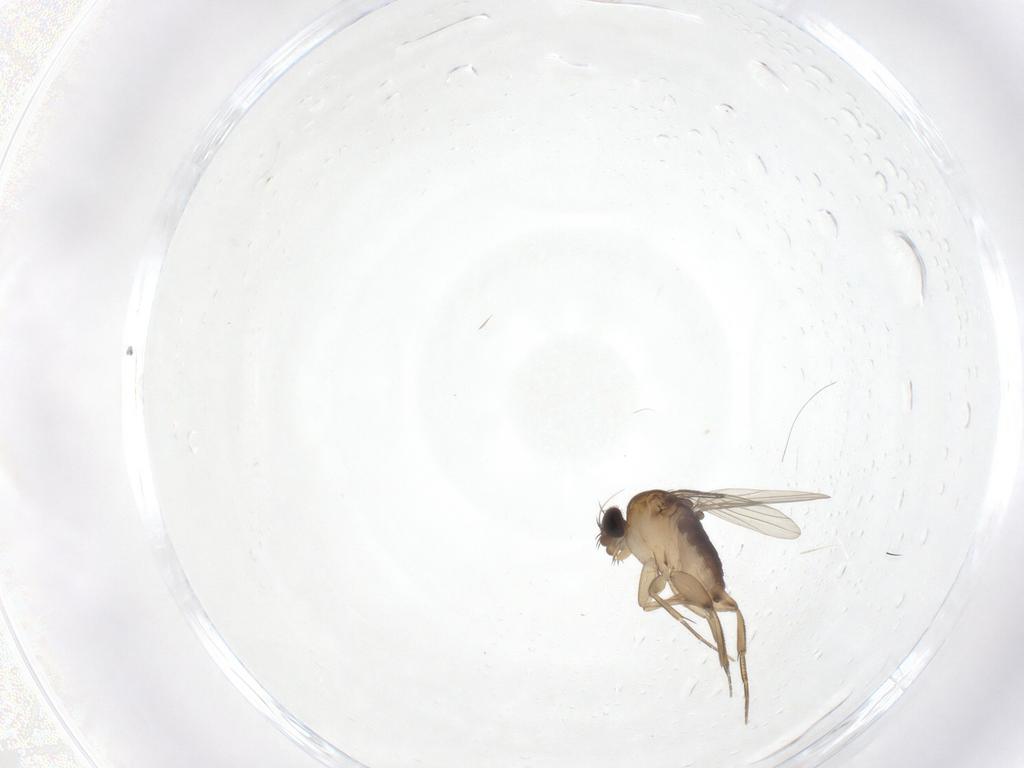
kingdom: Animalia
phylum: Arthropoda
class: Insecta
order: Diptera
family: Phoridae
